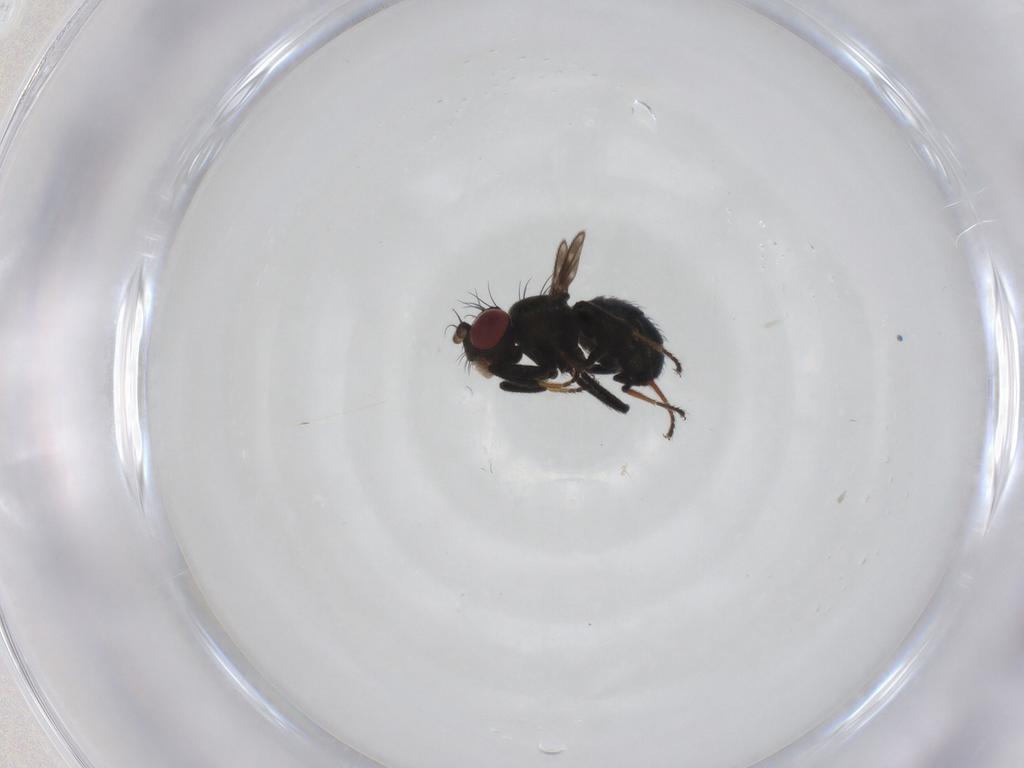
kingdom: Animalia
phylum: Arthropoda
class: Insecta
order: Diptera
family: Ephydridae
